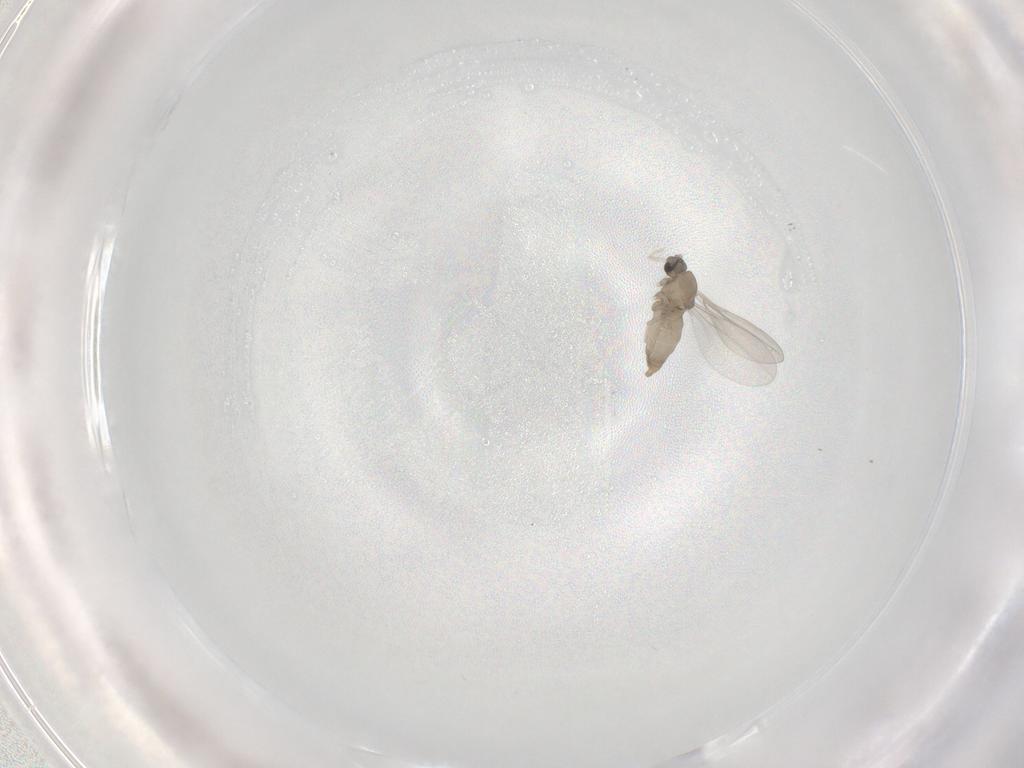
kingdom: Animalia
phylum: Arthropoda
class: Insecta
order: Diptera
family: Cecidomyiidae
